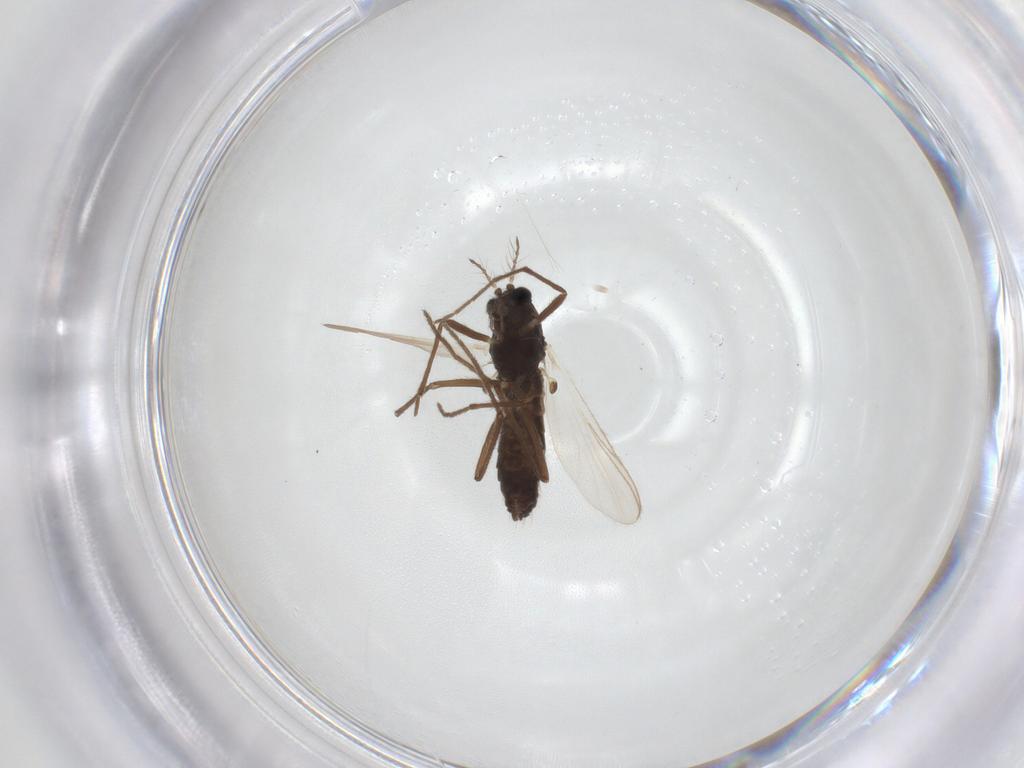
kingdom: Animalia
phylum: Arthropoda
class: Insecta
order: Diptera
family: Chironomidae
